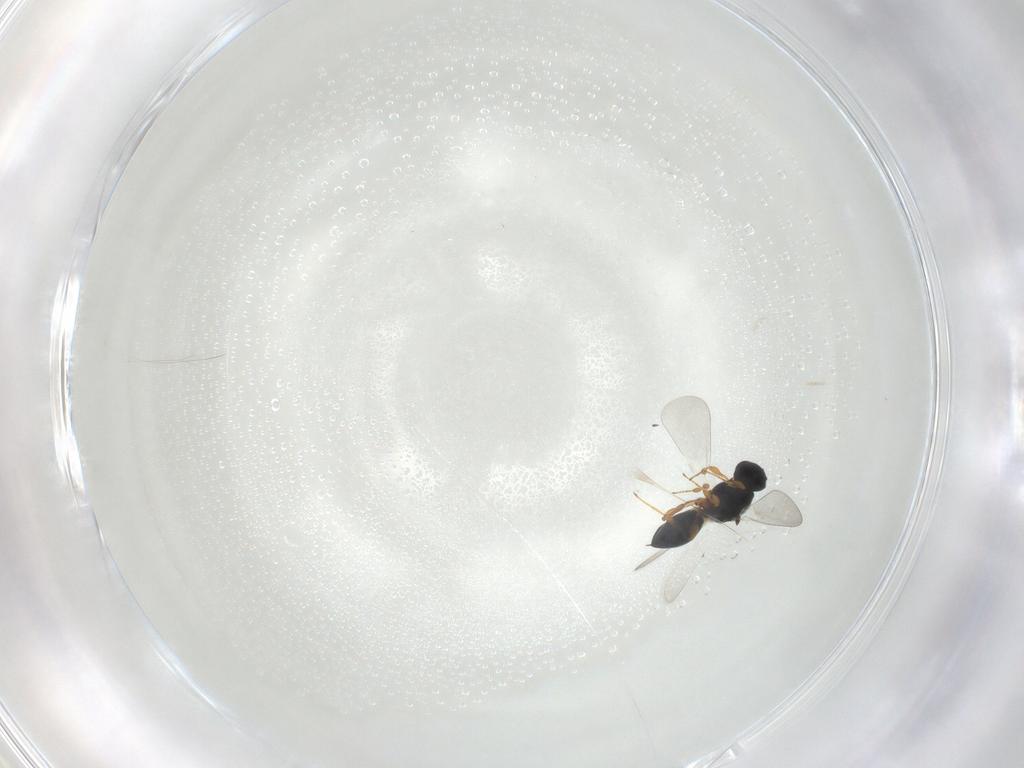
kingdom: Animalia
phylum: Arthropoda
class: Insecta
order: Hymenoptera
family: Platygastridae
